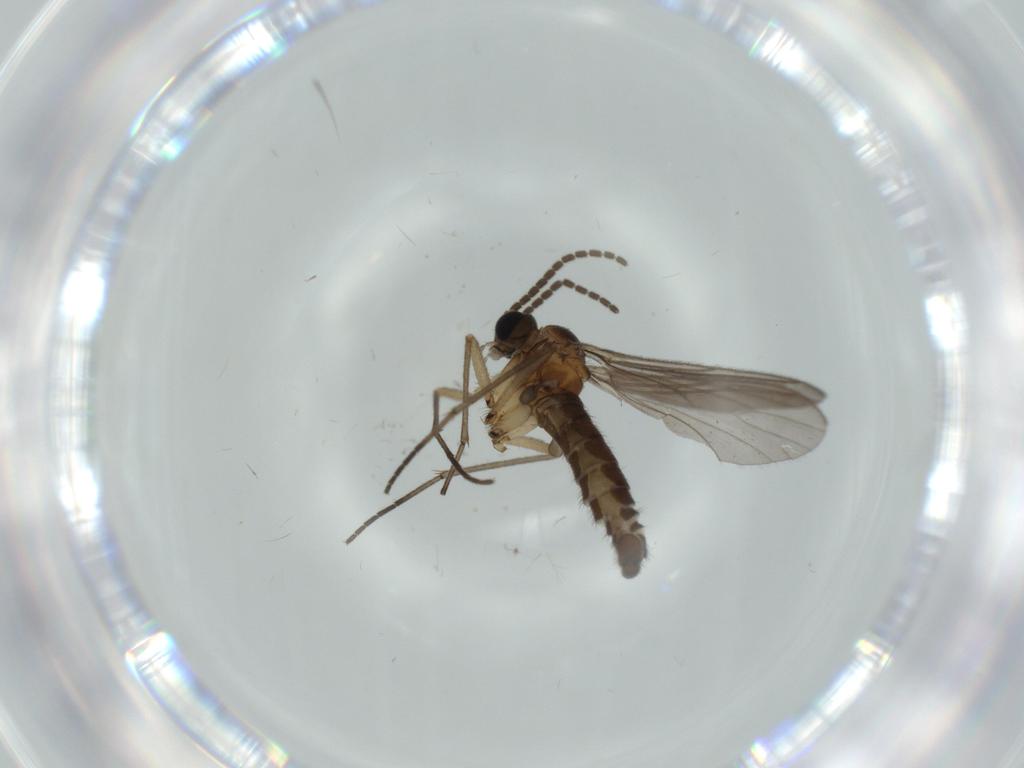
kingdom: Animalia
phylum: Arthropoda
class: Insecta
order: Diptera
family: Sciaridae
